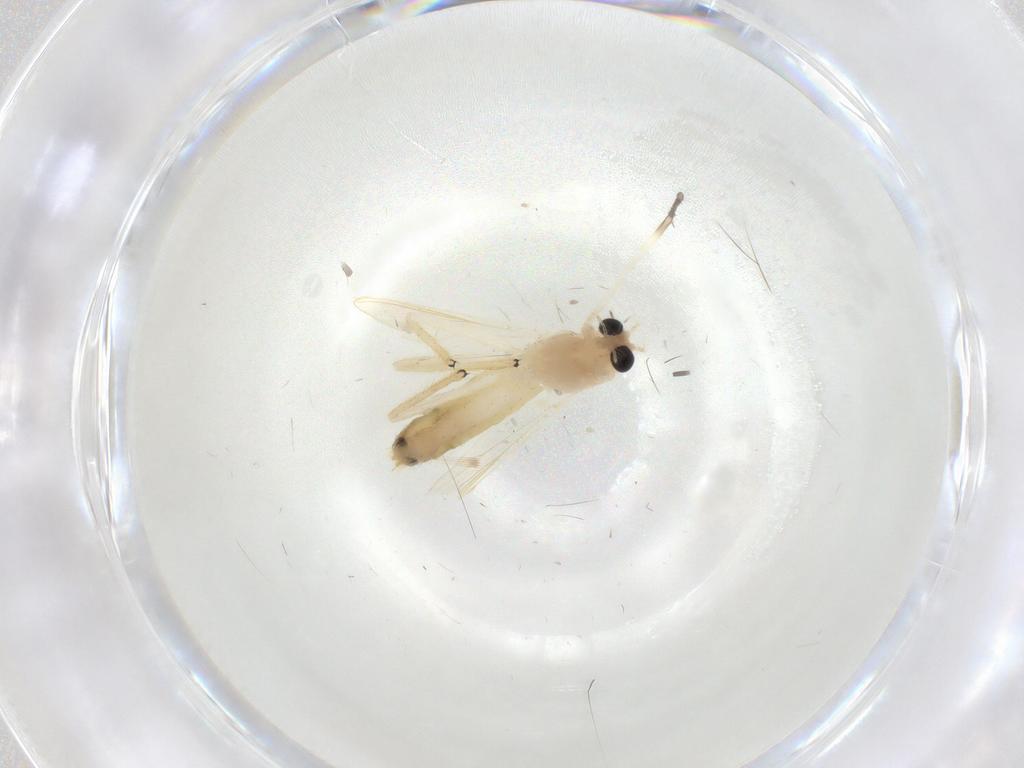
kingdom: Animalia
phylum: Arthropoda
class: Insecta
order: Diptera
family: Chironomidae
